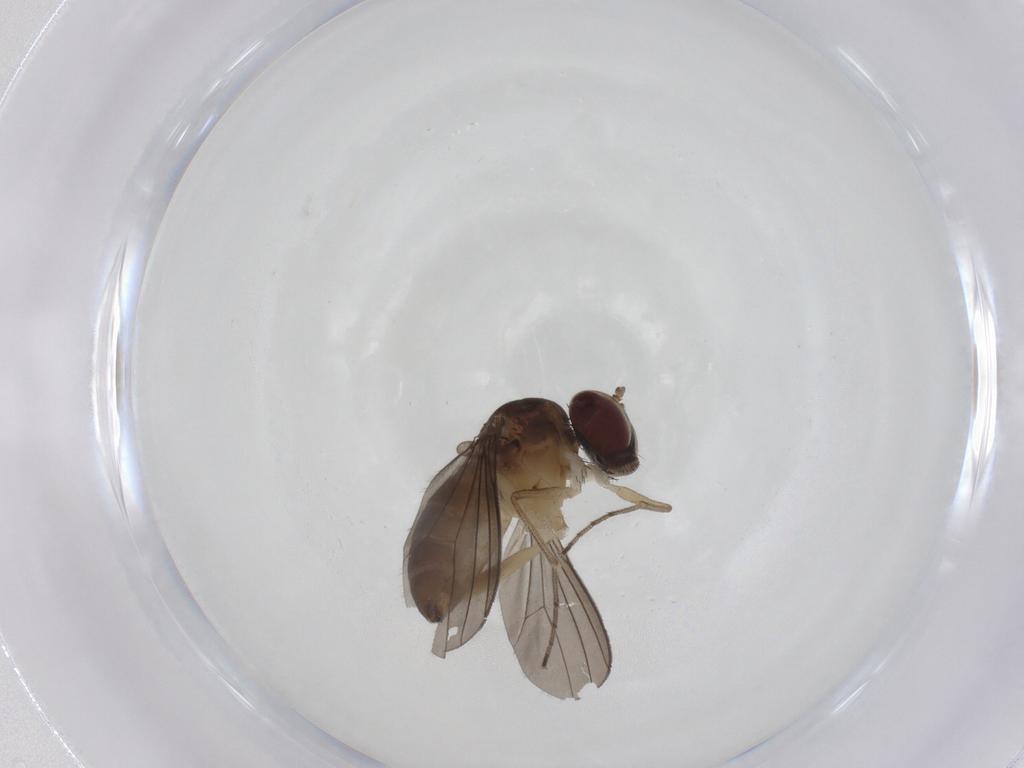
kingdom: Animalia
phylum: Arthropoda
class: Insecta
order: Diptera
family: Dolichopodidae
